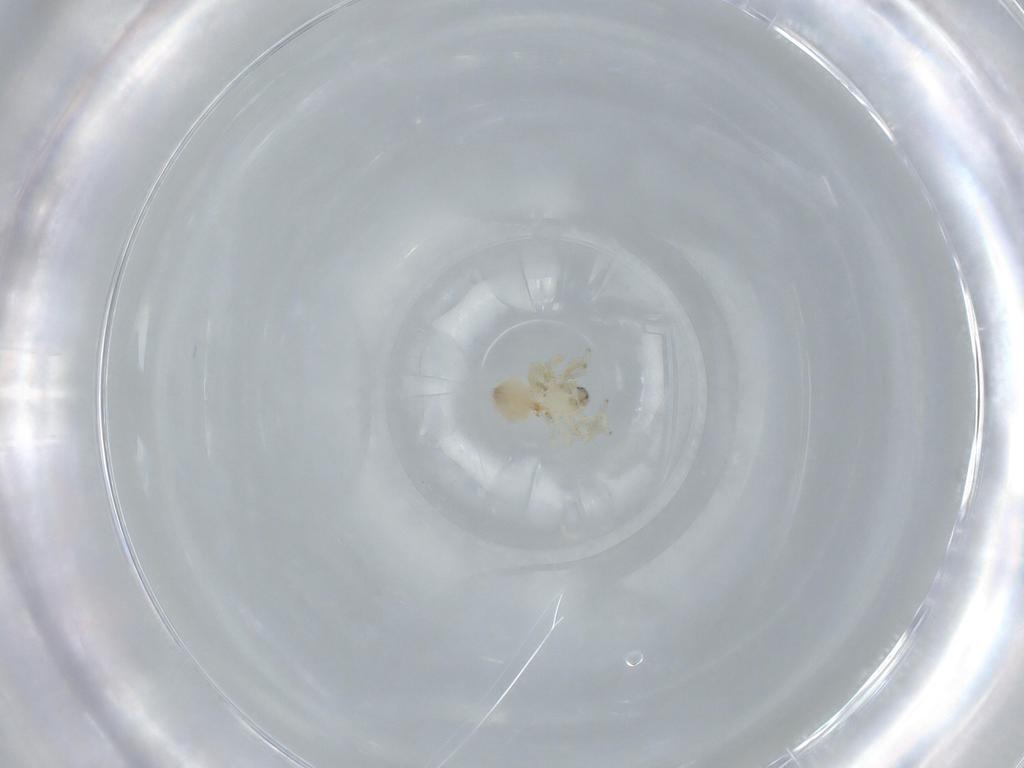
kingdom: Animalia
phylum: Arthropoda
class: Arachnida
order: Araneae
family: Oonopidae
